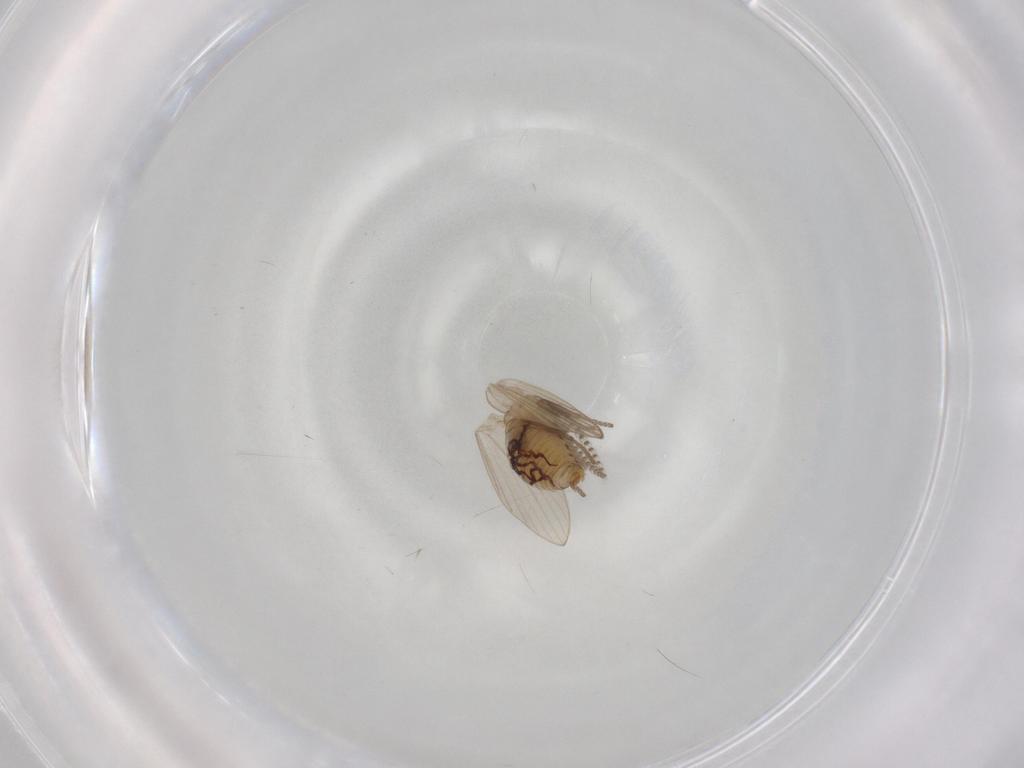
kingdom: Animalia
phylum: Arthropoda
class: Insecta
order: Diptera
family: Psychodidae
